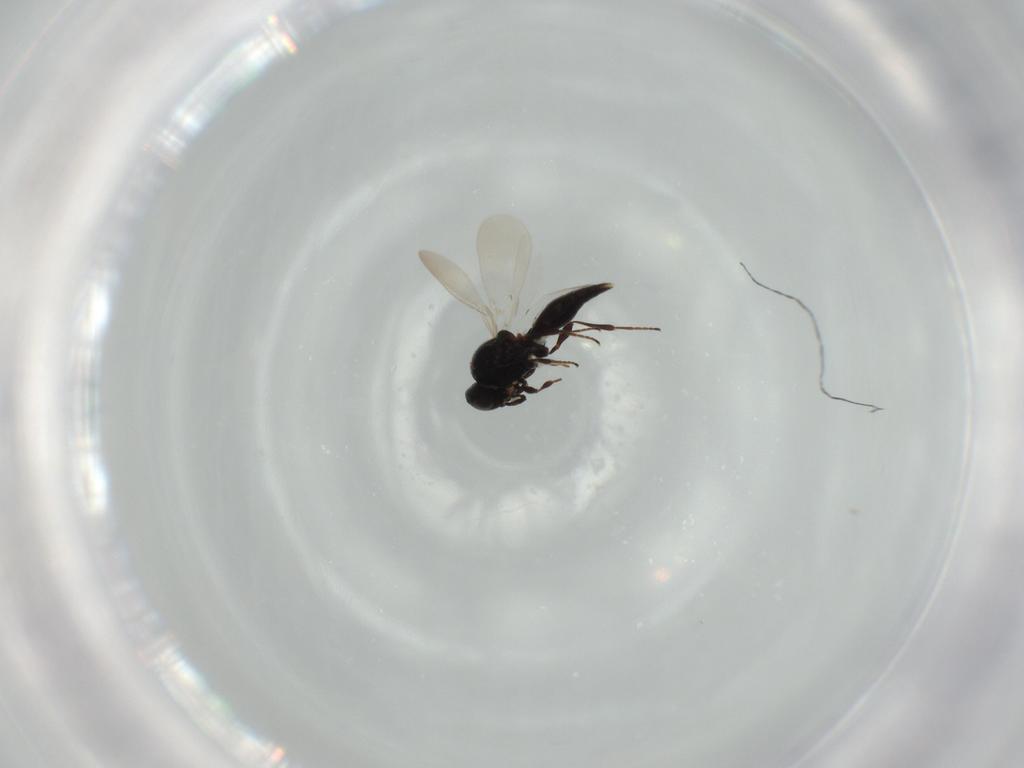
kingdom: Animalia
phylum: Arthropoda
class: Insecta
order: Hymenoptera
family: Platygastridae
